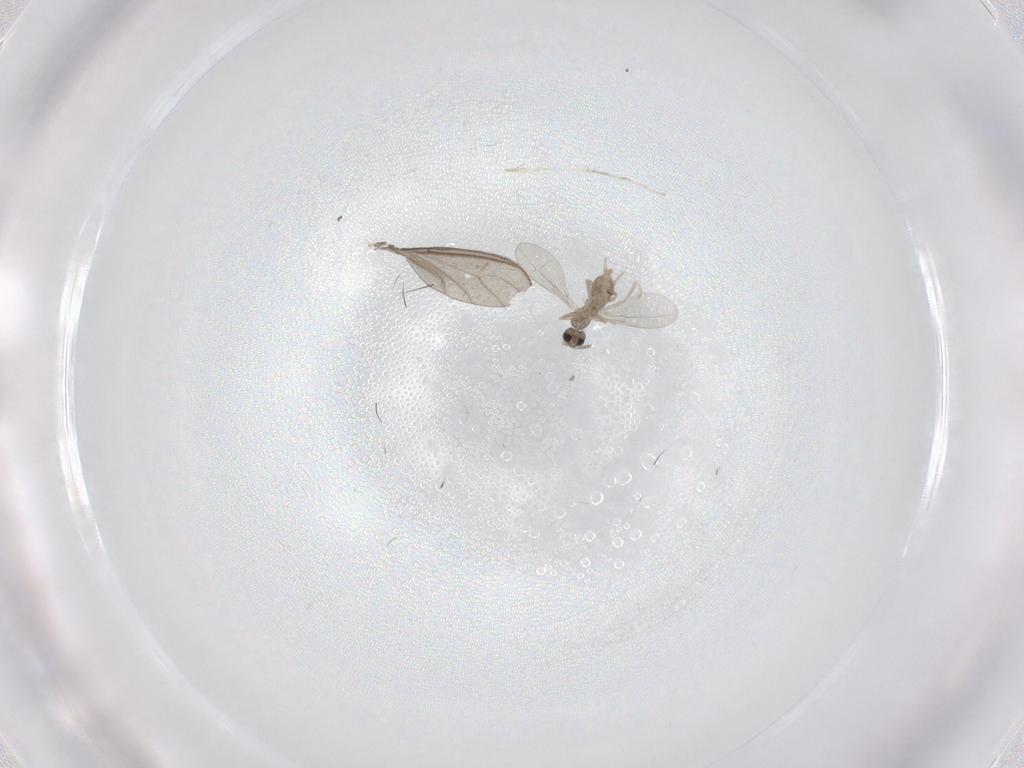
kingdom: Animalia
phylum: Arthropoda
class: Insecta
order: Diptera
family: Cecidomyiidae
